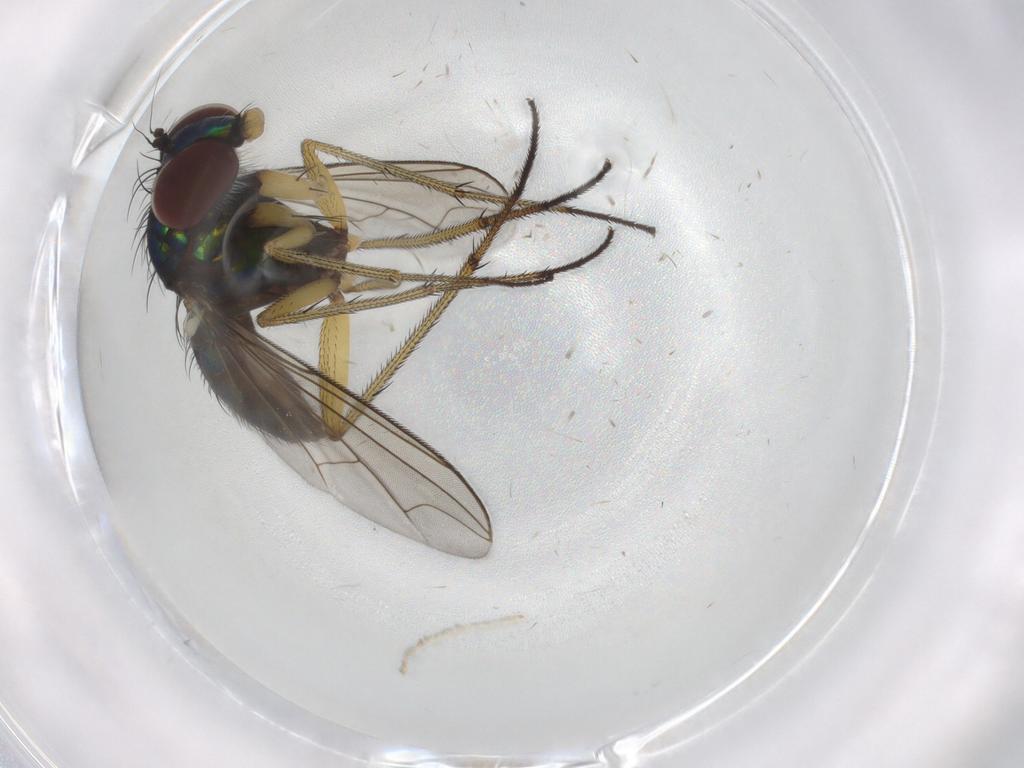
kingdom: Animalia
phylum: Arthropoda
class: Insecta
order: Diptera
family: Dolichopodidae
